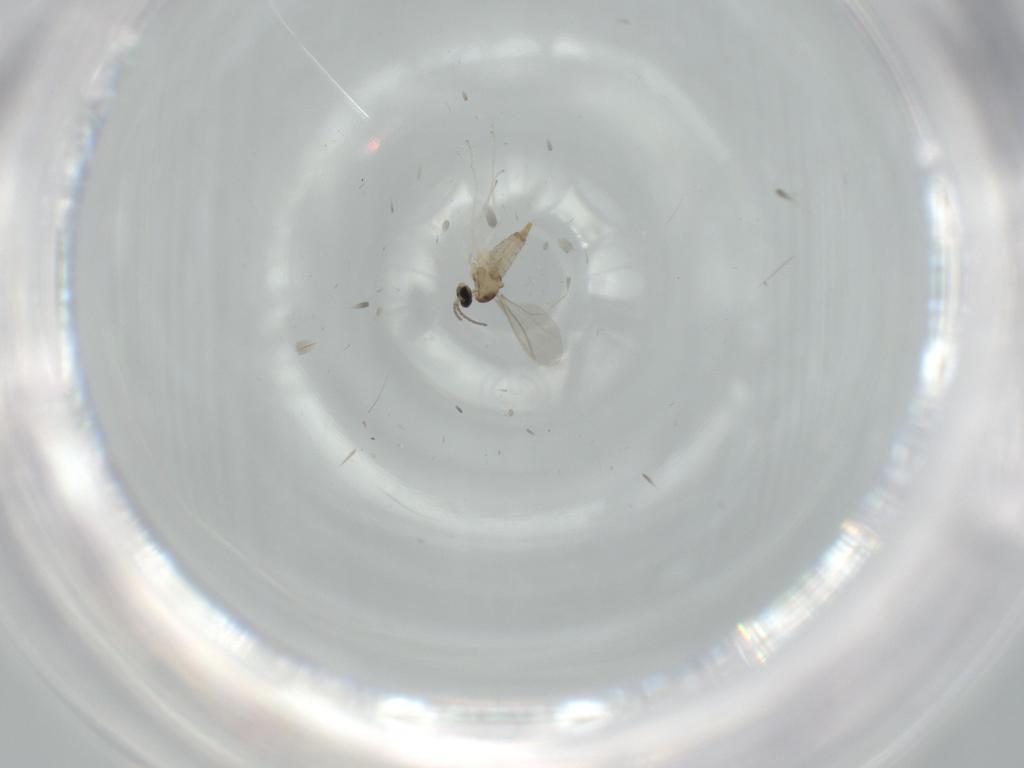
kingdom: Animalia
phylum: Arthropoda
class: Insecta
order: Diptera
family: Cecidomyiidae
